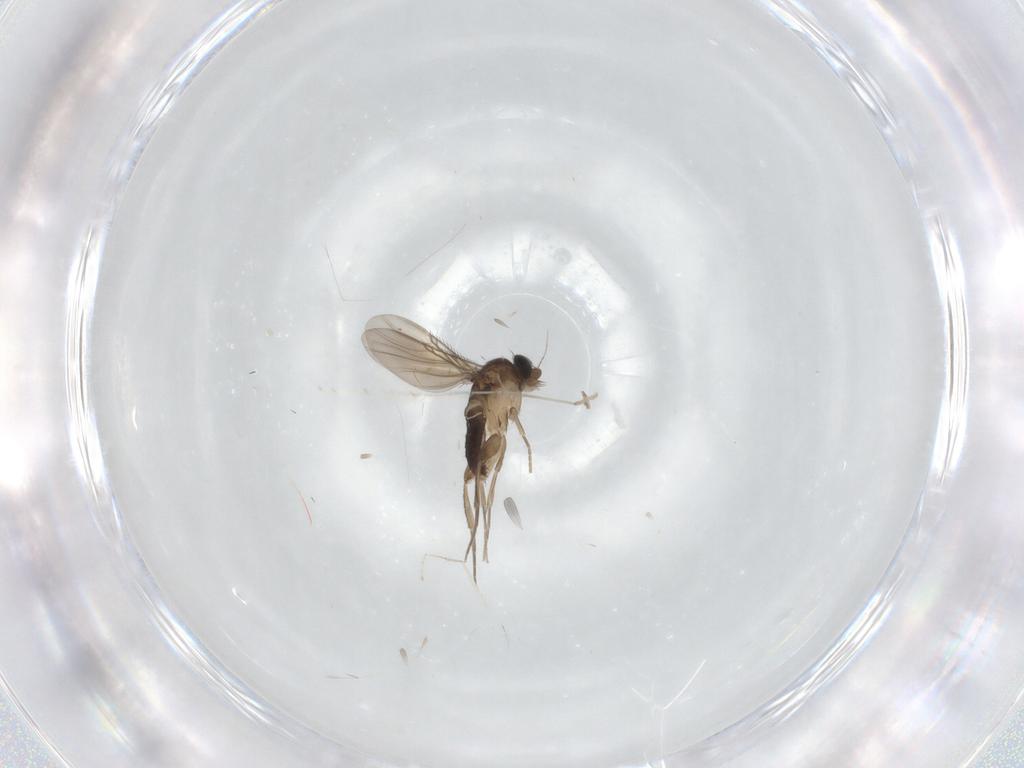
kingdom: Animalia
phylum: Arthropoda
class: Insecta
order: Diptera
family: Cecidomyiidae
